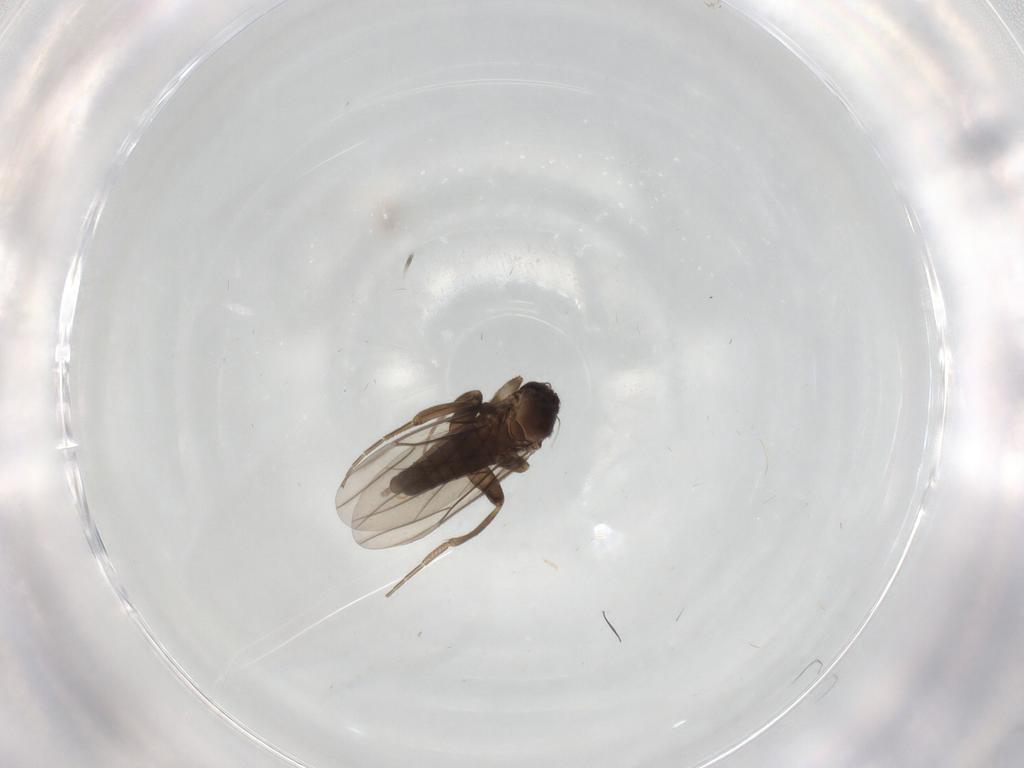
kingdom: Animalia
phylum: Arthropoda
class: Insecta
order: Diptera
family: Phoridae
